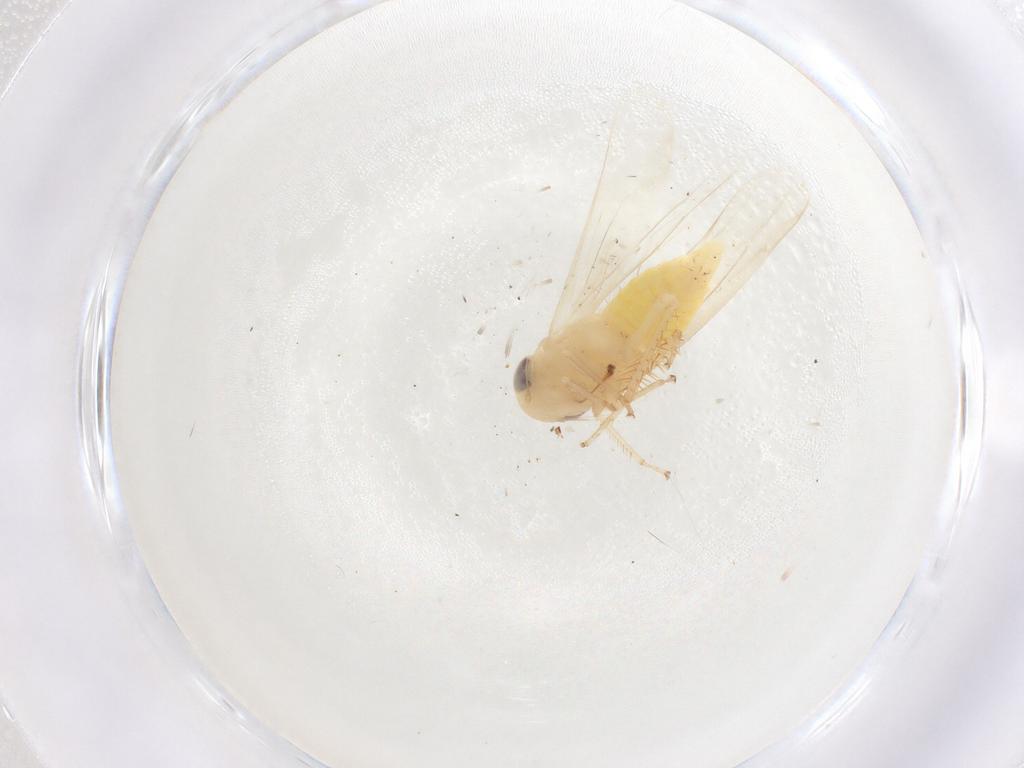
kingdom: Animalia
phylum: Arthropoda
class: Insecta
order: Hemiptera
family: Cicadellidae
